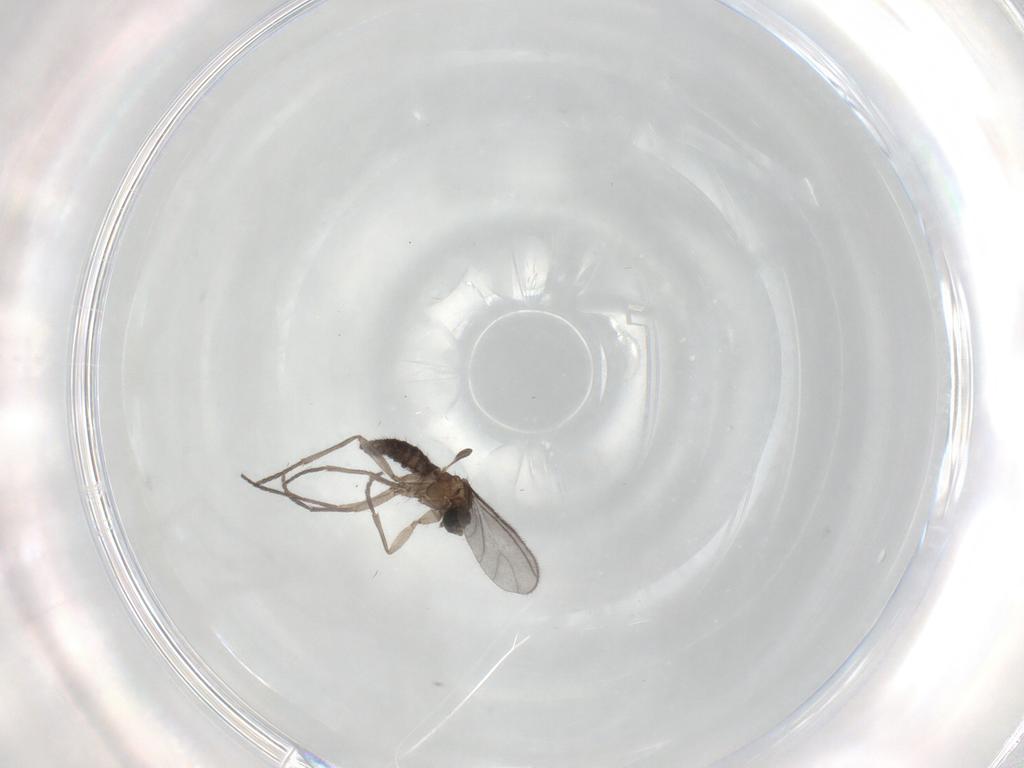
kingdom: Animalia
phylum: Arthropoda
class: Insecta
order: Diptera
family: Sciaridae
